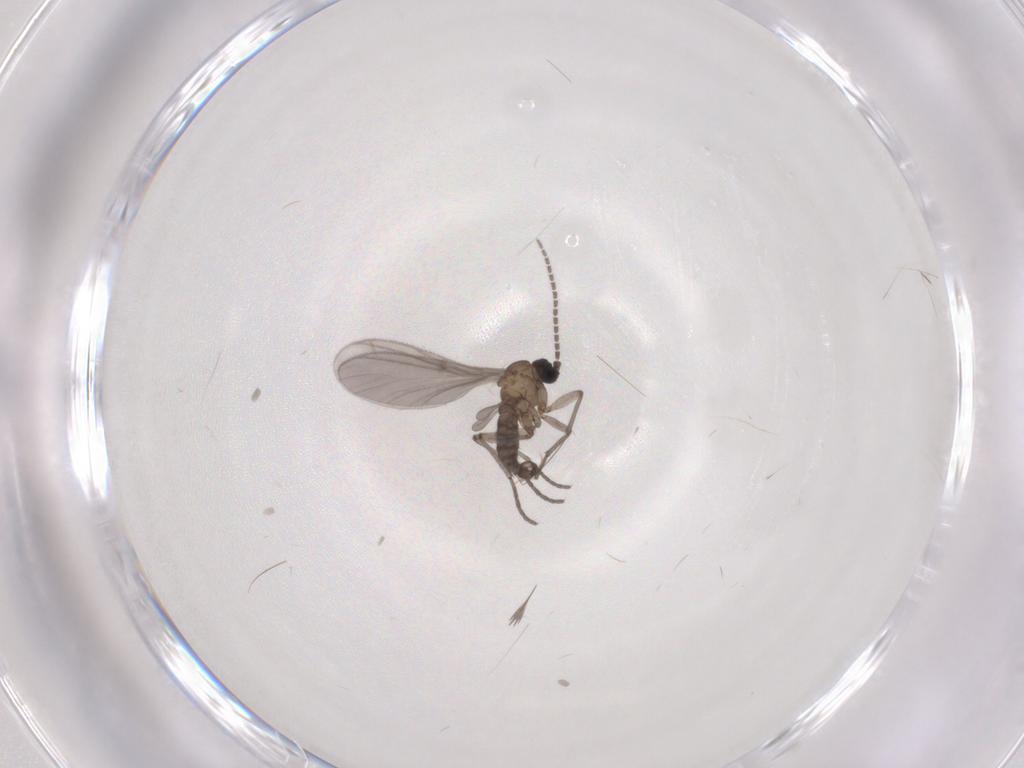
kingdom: Animalia
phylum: Arthropoda
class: Insecta
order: Diptera
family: Sciaridae
